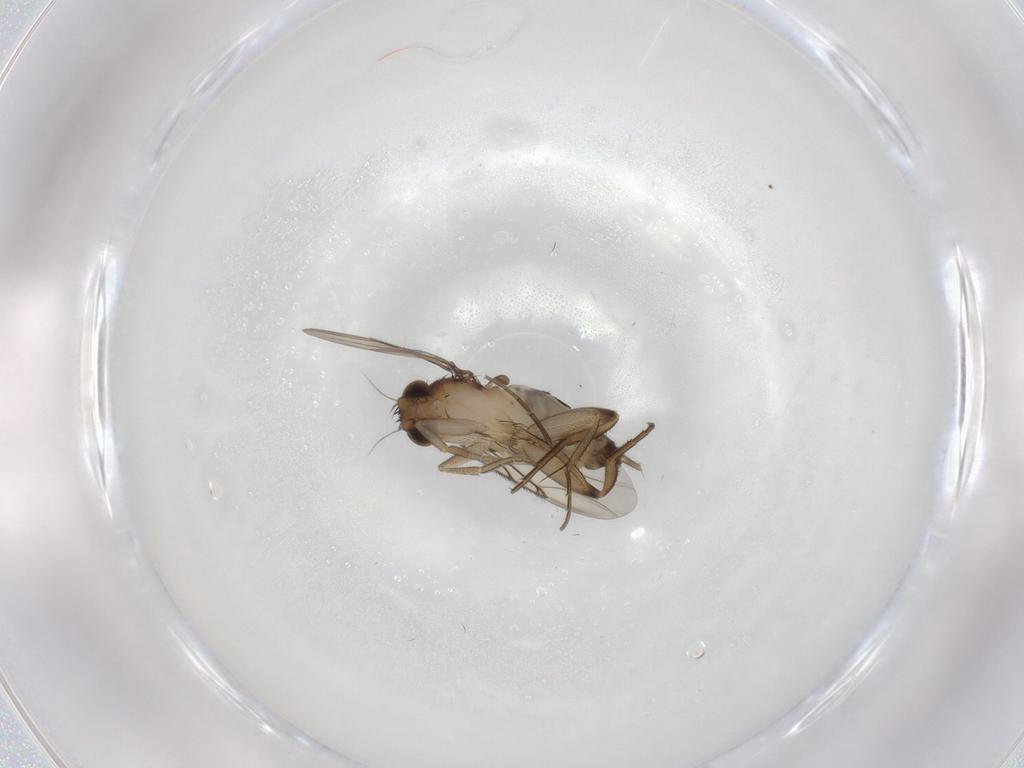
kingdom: Animalia
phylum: Arthropoda
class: Insecta
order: Diptera
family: Phoridae
